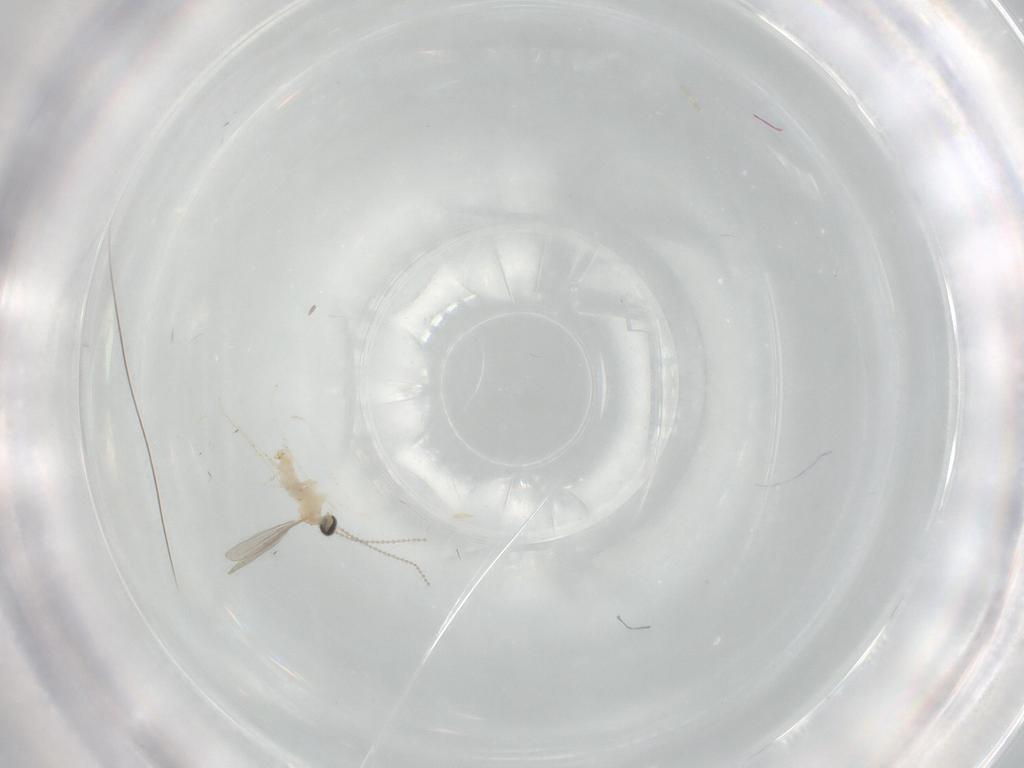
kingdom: Animalia
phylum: Arthropoda
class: Insecta
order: Diptera
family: Cecidomyiidae
